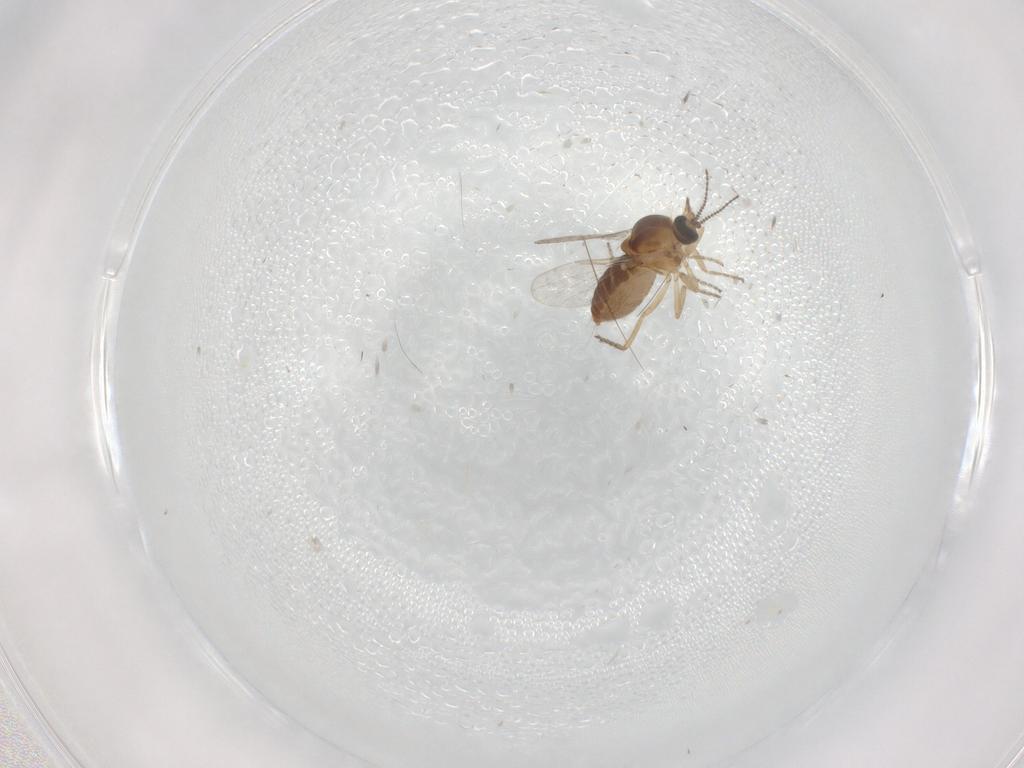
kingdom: Animalia
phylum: Arthropoda
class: Insecta
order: Diptera
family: Ceratopogonidae
